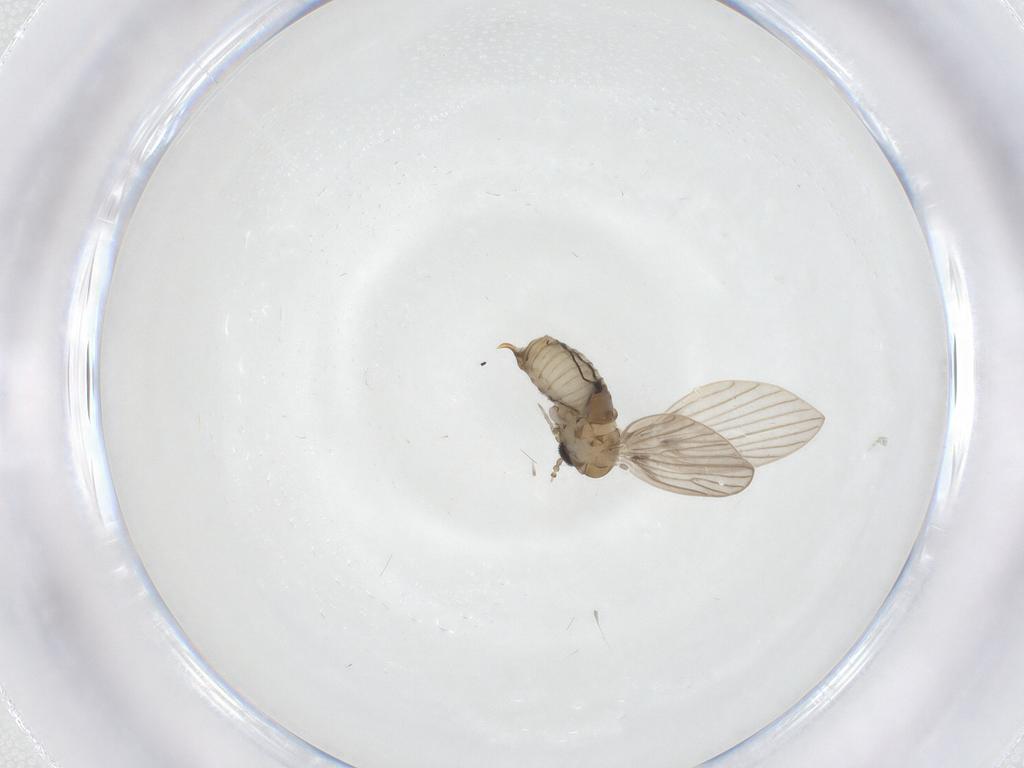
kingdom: Animalia
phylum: Arthropoda
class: Insecta
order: Diptera
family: Psychodidae
